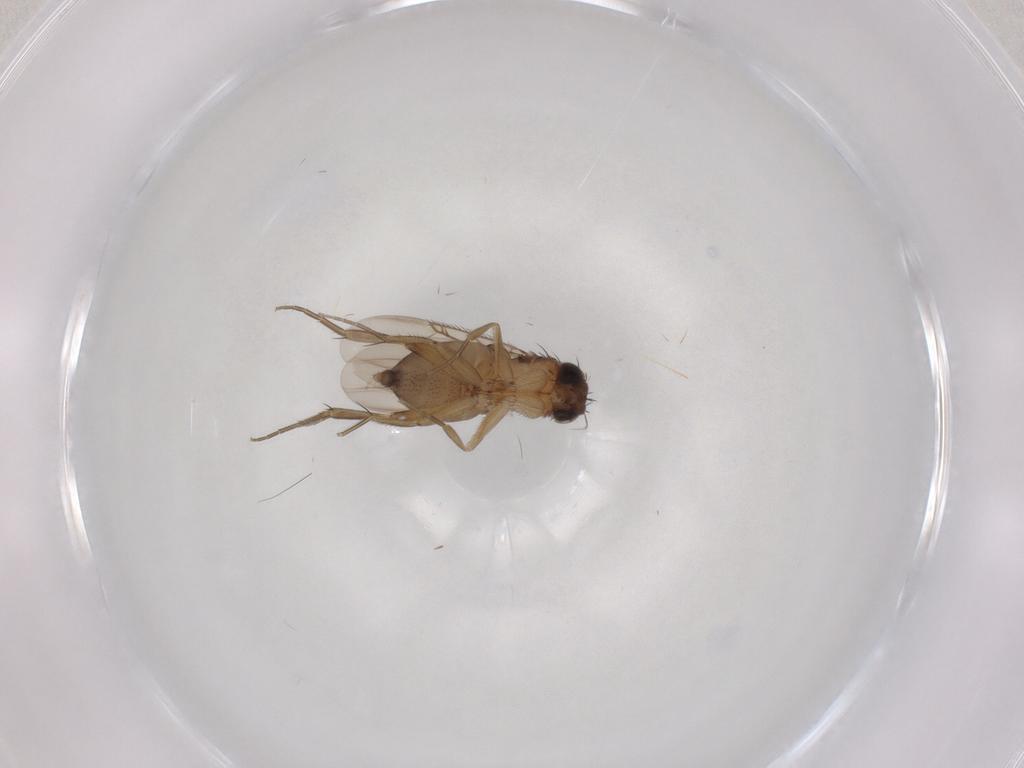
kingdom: Animalia
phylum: Arthropoda
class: Insecta
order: Diptera
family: Phoridae
